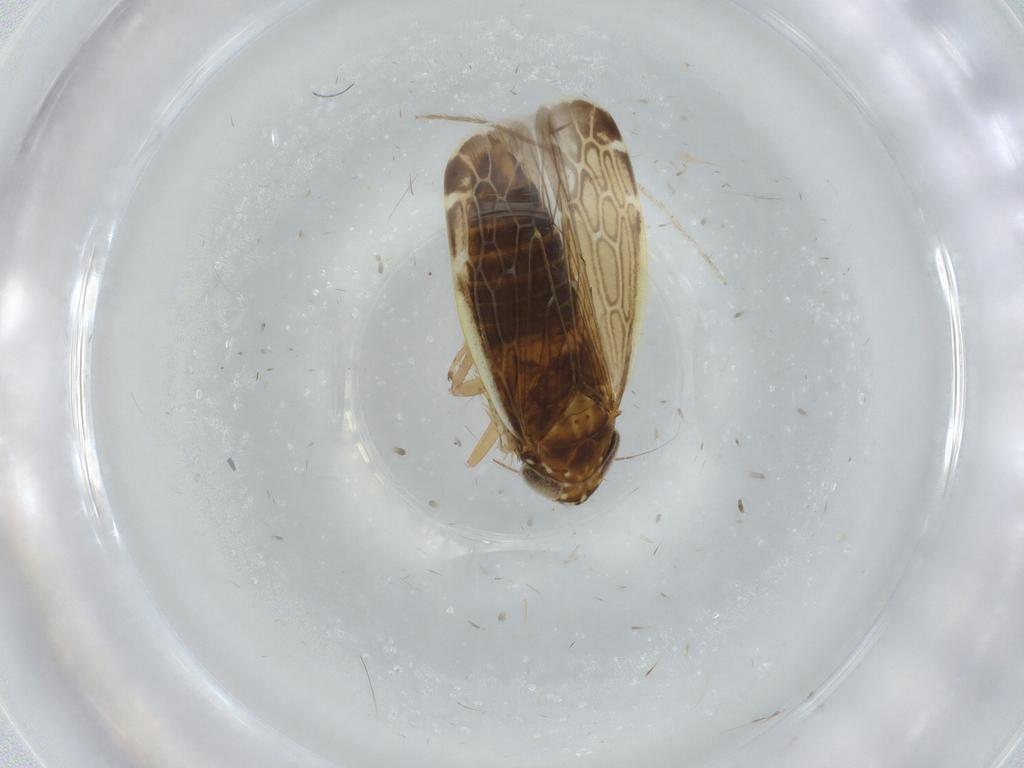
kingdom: Animalia
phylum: Arthropoda
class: Insecta
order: Hemiptera
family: Cicadellidae
